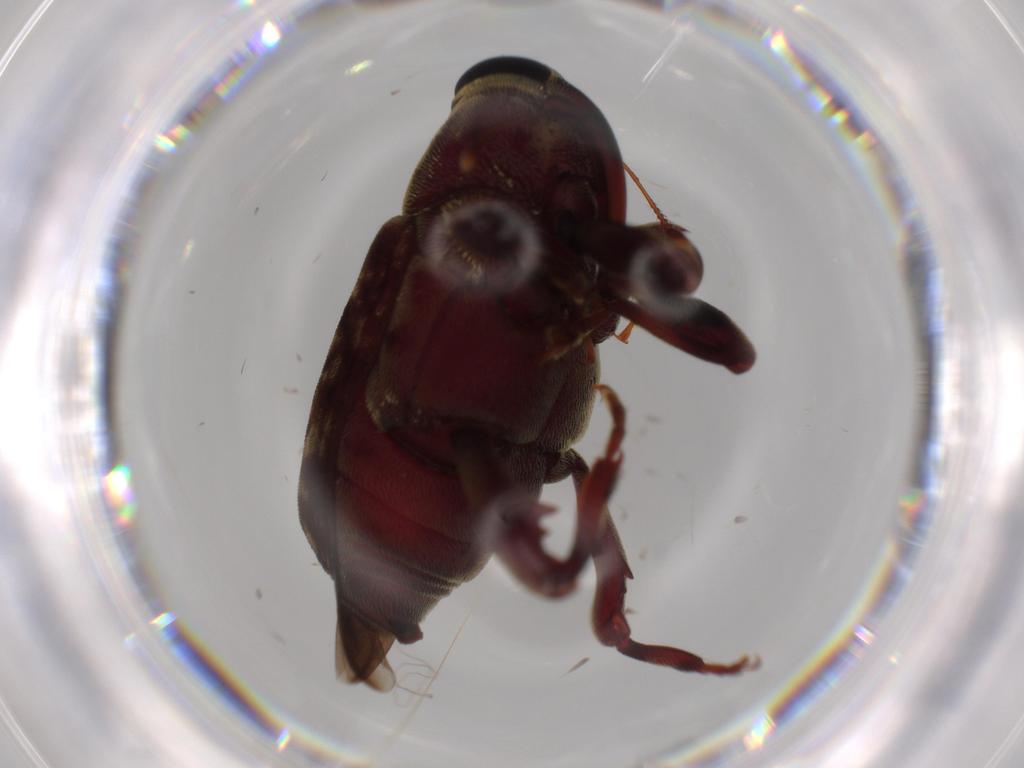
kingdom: Animalia
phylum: Arthropoda
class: Insecta
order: Coleoptera
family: Curculionidae
